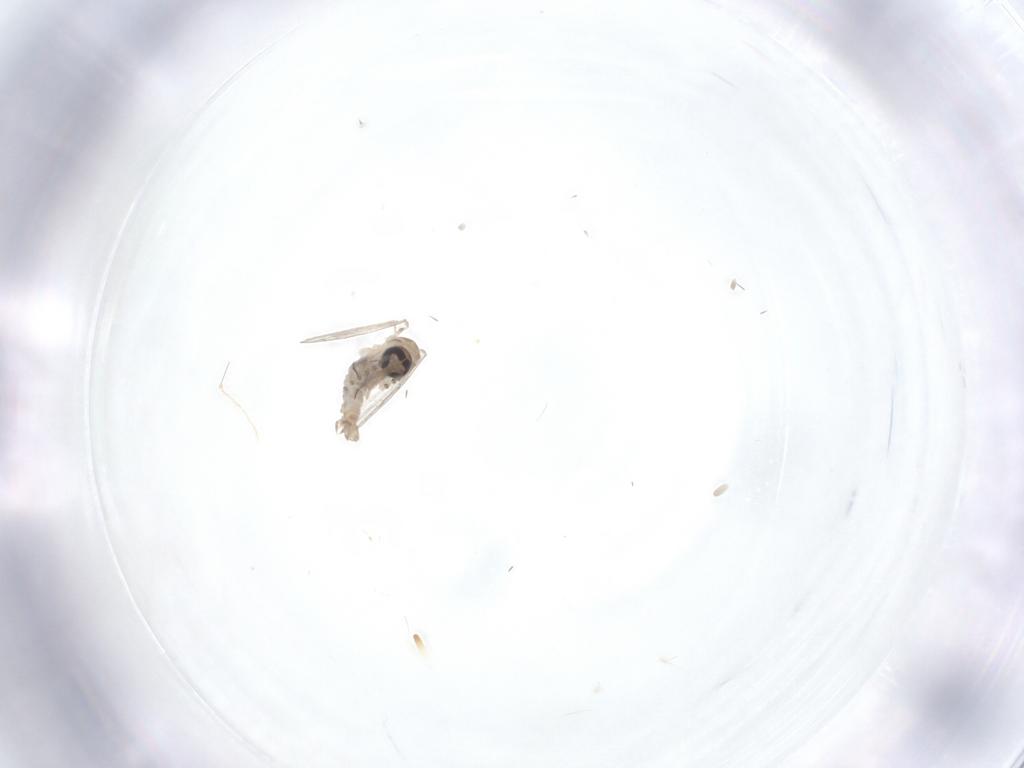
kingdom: Animalia
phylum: Arthropoda
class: Insecta
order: Diptera
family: Psychodidae
